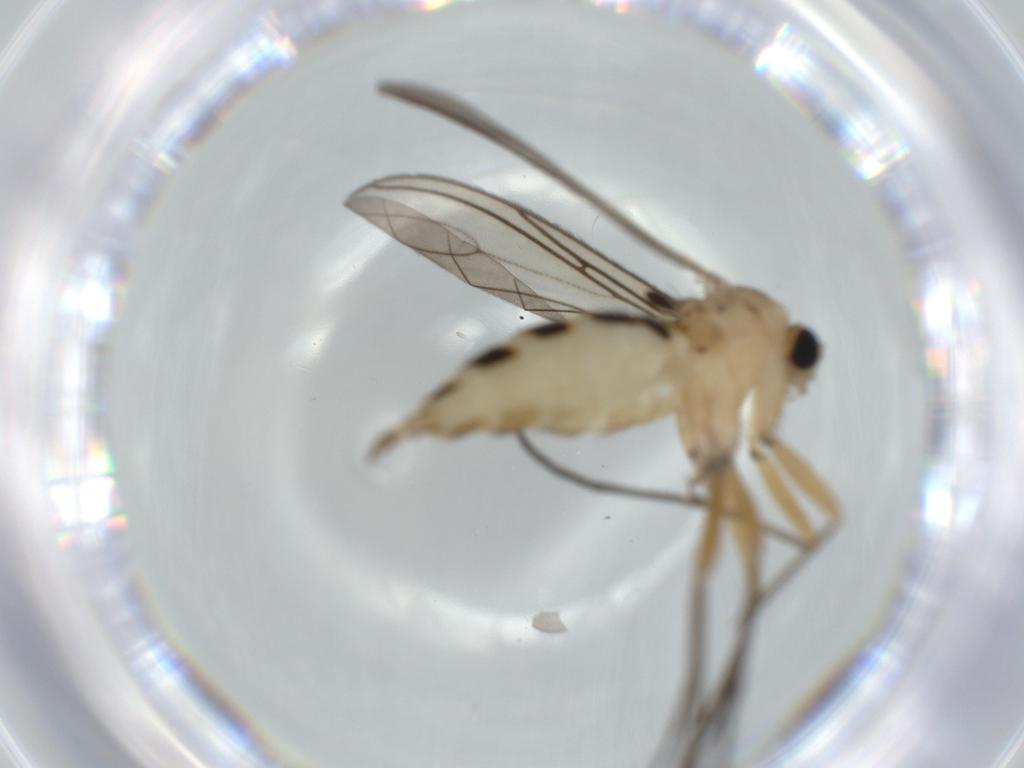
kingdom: Animalia
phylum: Arthropoda
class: Insecta
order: Diptera
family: Sciaridae
